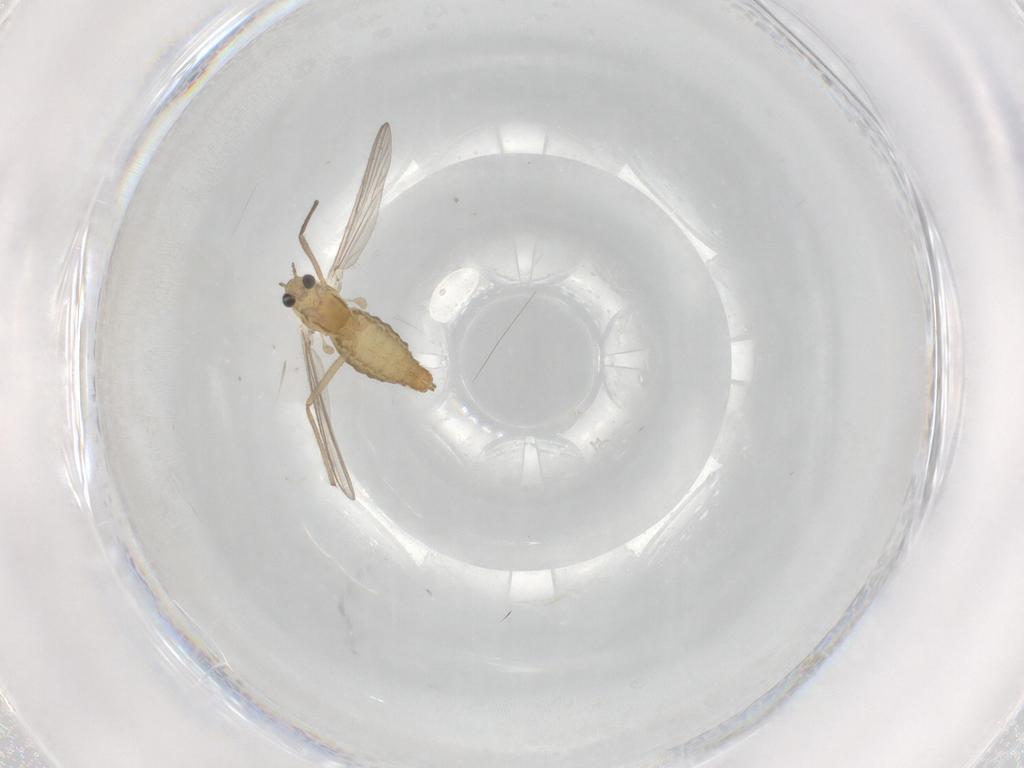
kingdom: Animalia
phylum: Arthropoda
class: Insecta
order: Diptera
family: Chironomidae
